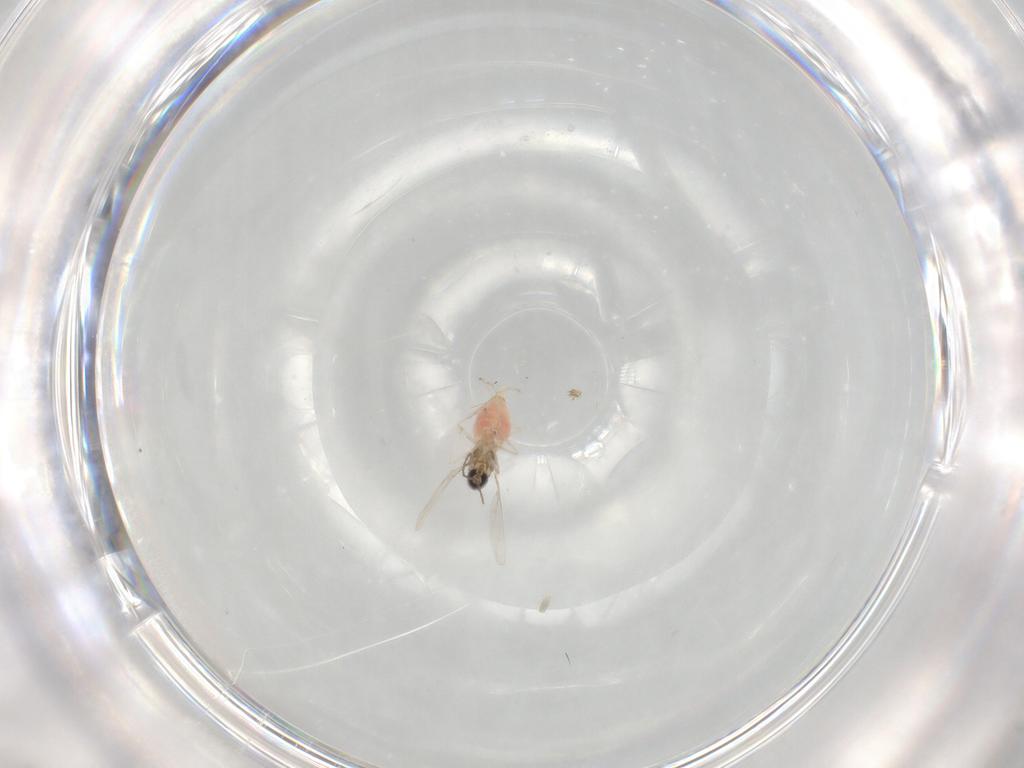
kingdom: Animalia
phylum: Arthropoda
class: Insecta
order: Diptera
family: Cecidomyiidae
